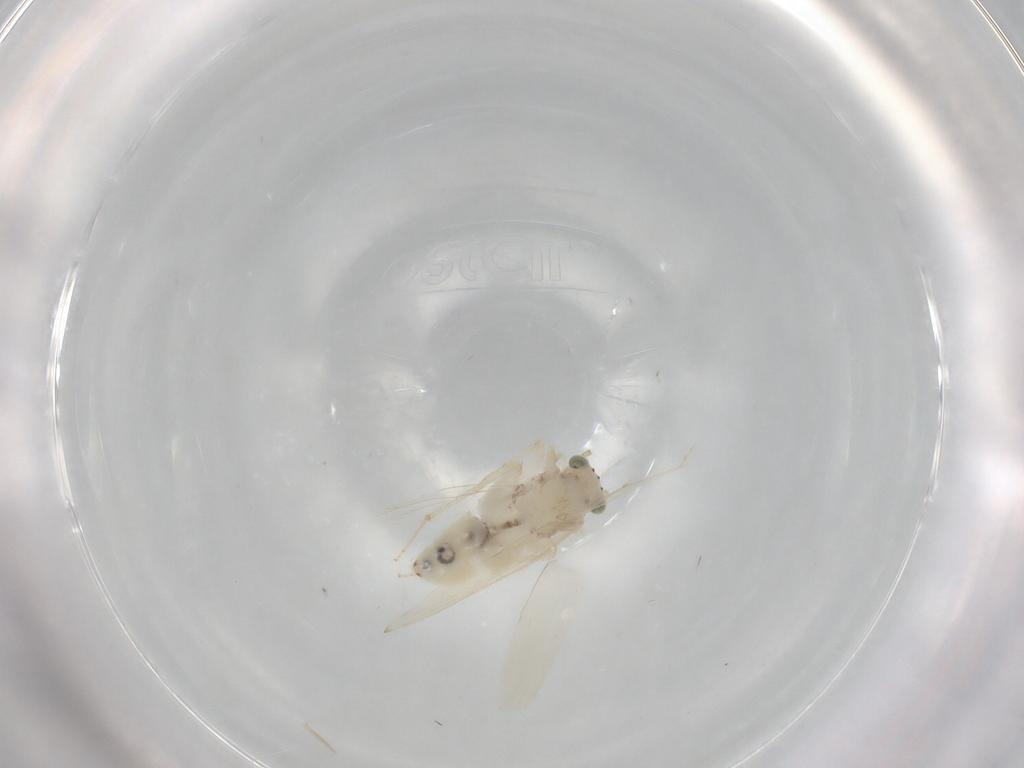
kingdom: Animalia
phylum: Arthropoda
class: Insecta
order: Psocodea
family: Lepidopsocidae
